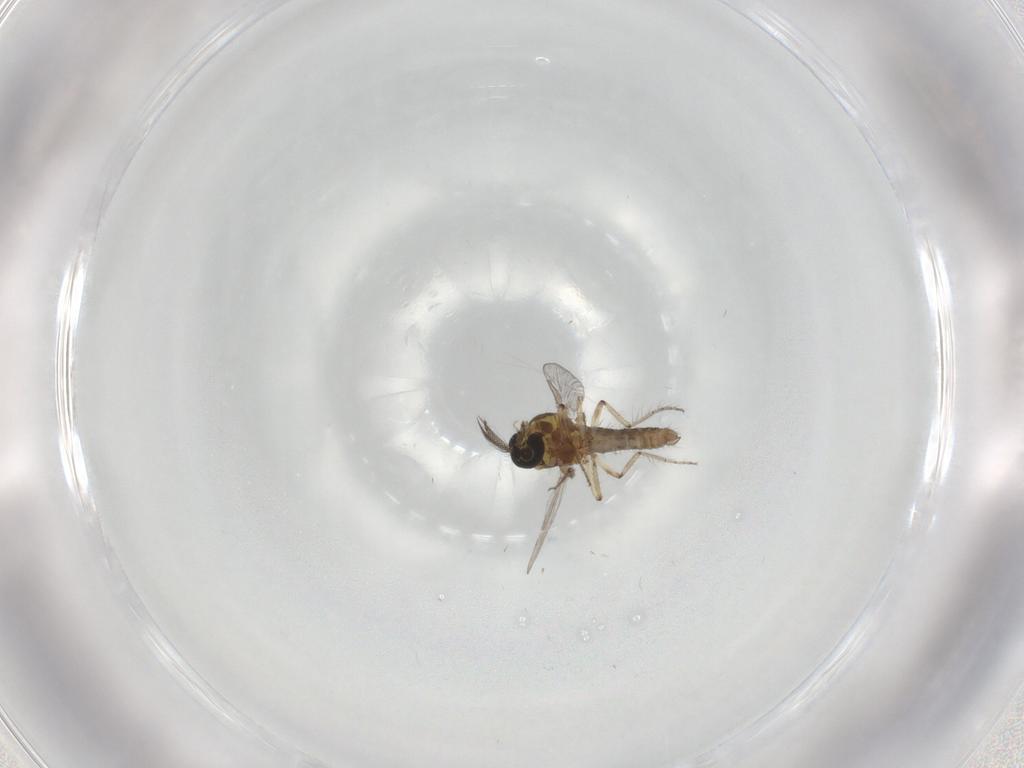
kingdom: Animalia
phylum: Arthropoda
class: Insecta
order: Diptera
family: Ceratopogonidae
